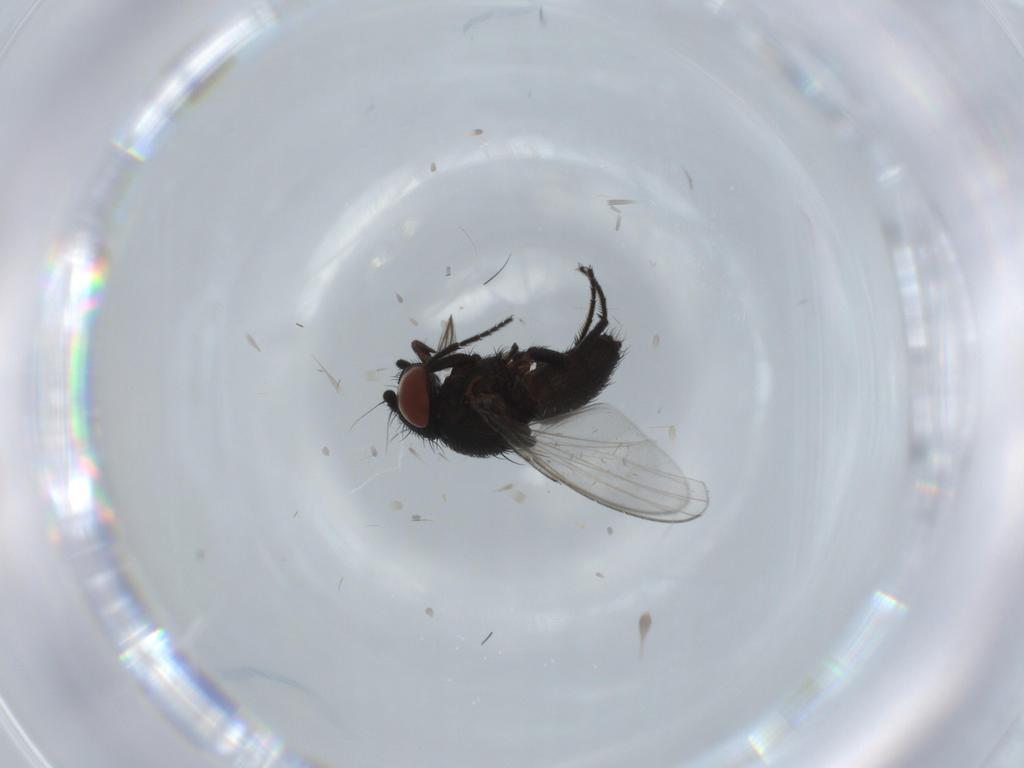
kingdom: Animalia
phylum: Arthropoda
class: Insecta
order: Diptera
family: Milichiidae
